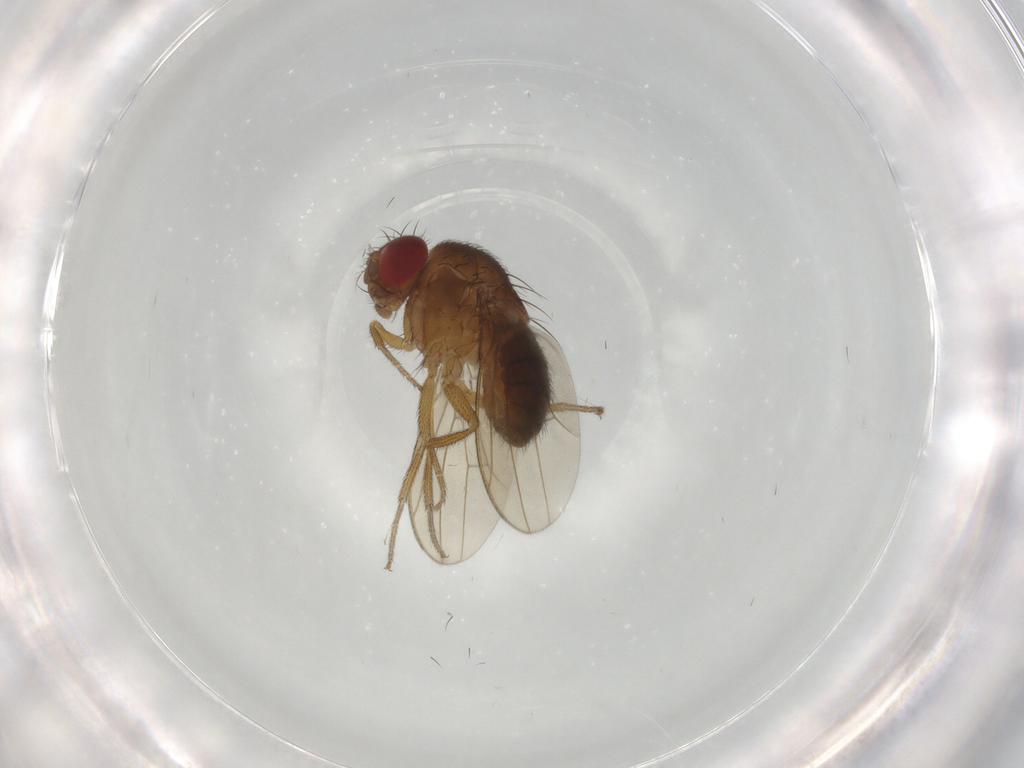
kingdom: Animalia
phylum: Arthropoda
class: Insecta
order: Diptera
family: Drosophilidae
